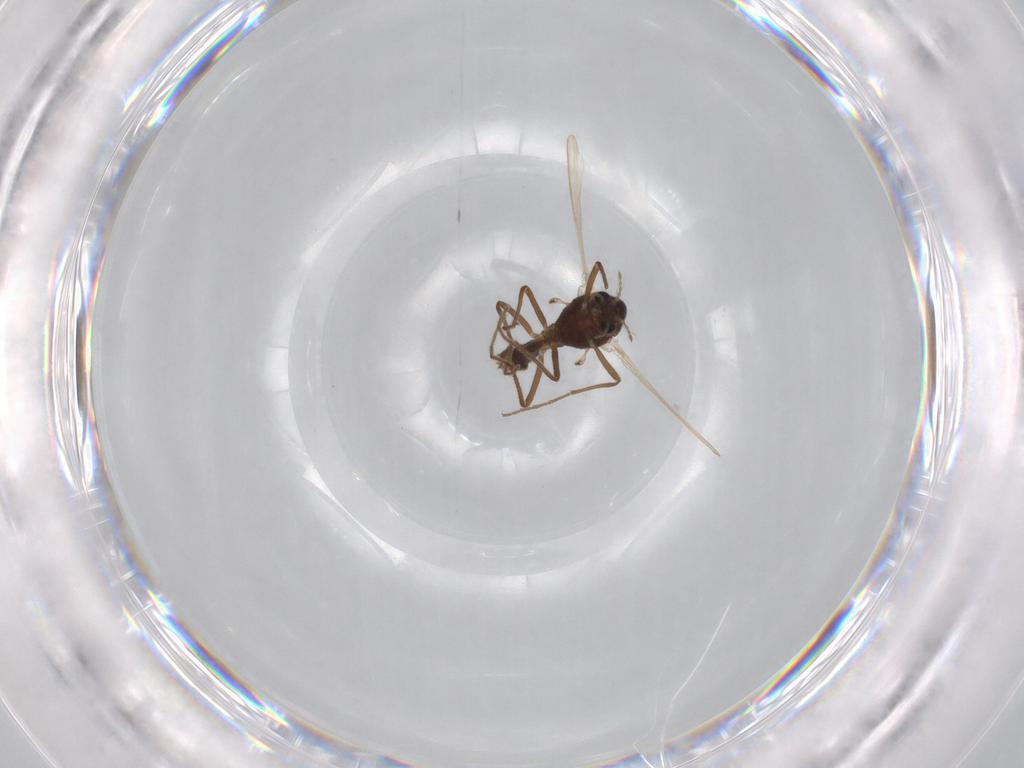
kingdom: Animalia
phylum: Arthropoda
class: Insecta
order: Diptera
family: Chironomidae
